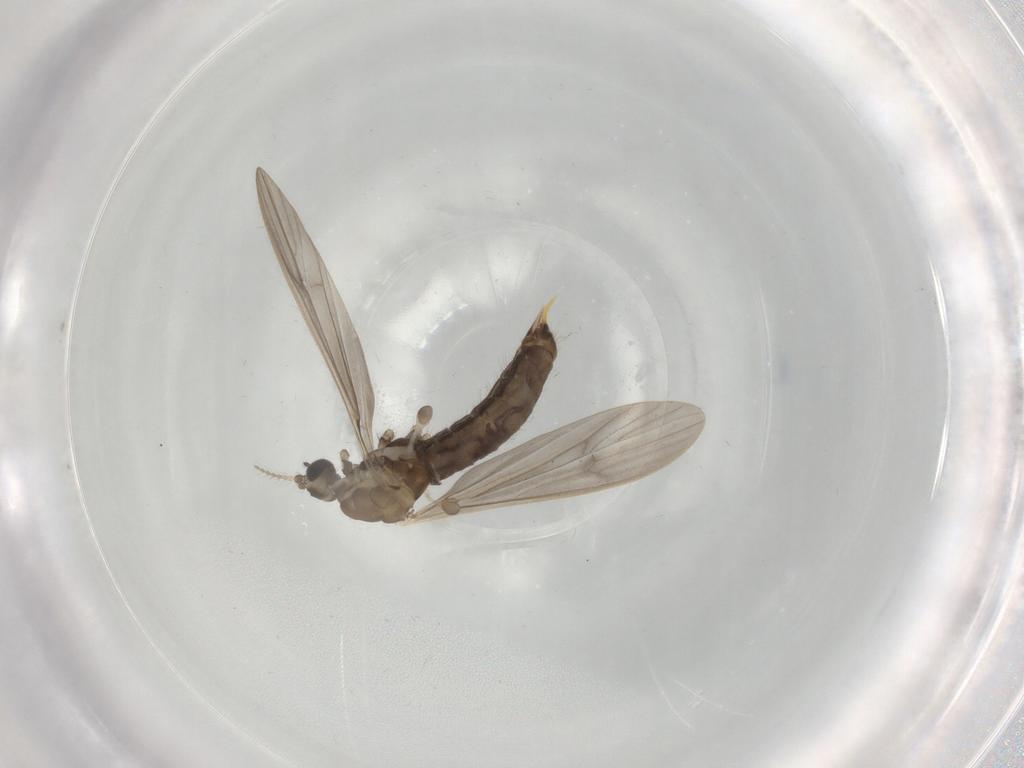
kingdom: Animalia
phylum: Arthropoda
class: Insecta
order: Diptera
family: Limoniidae
